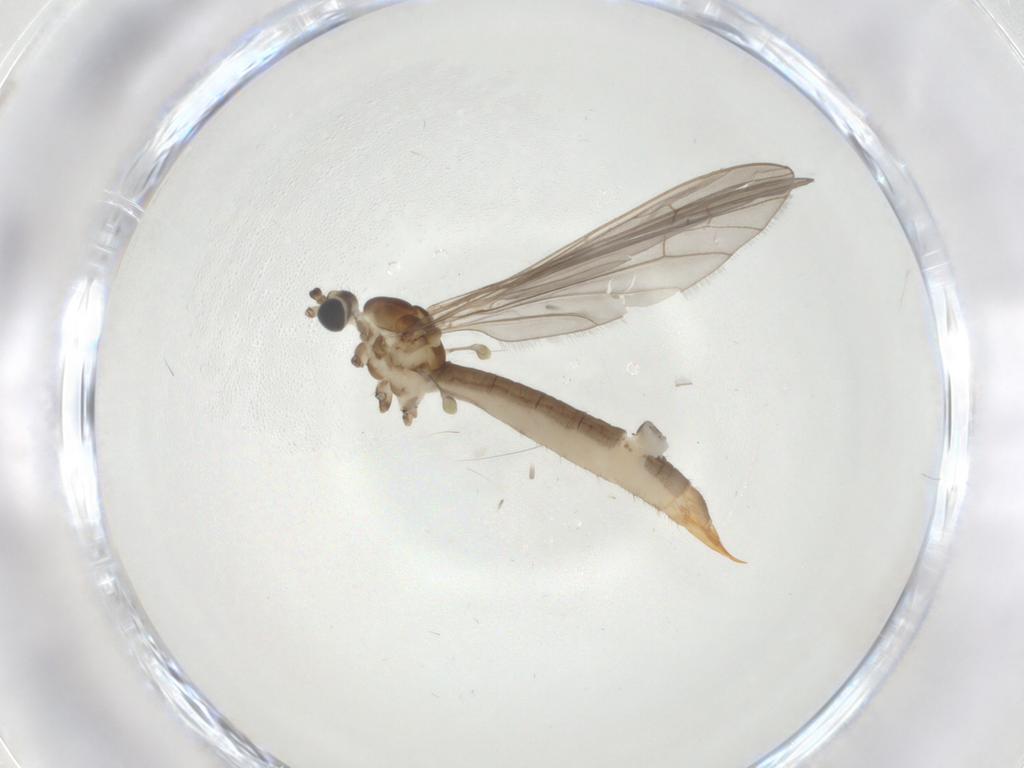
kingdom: Animalia
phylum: Arthropoda
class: Insecta
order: Diptera
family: Limoniidae
